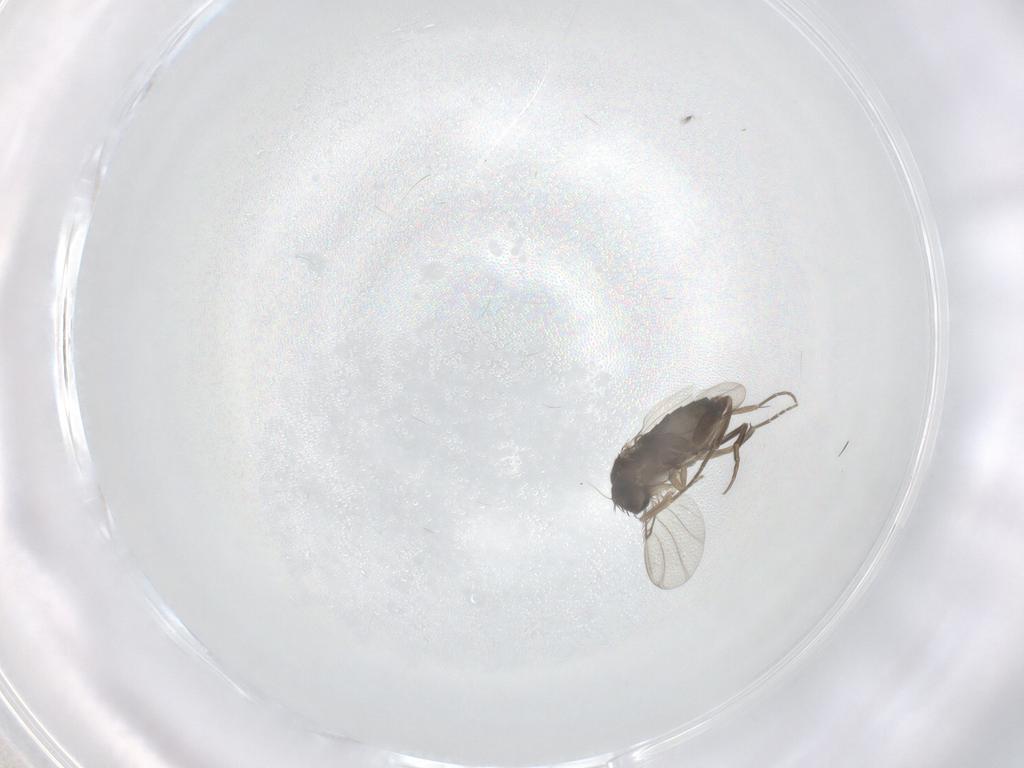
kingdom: Animalia
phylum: Arthropoda
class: Insecta
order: Diptera
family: Phoridae
